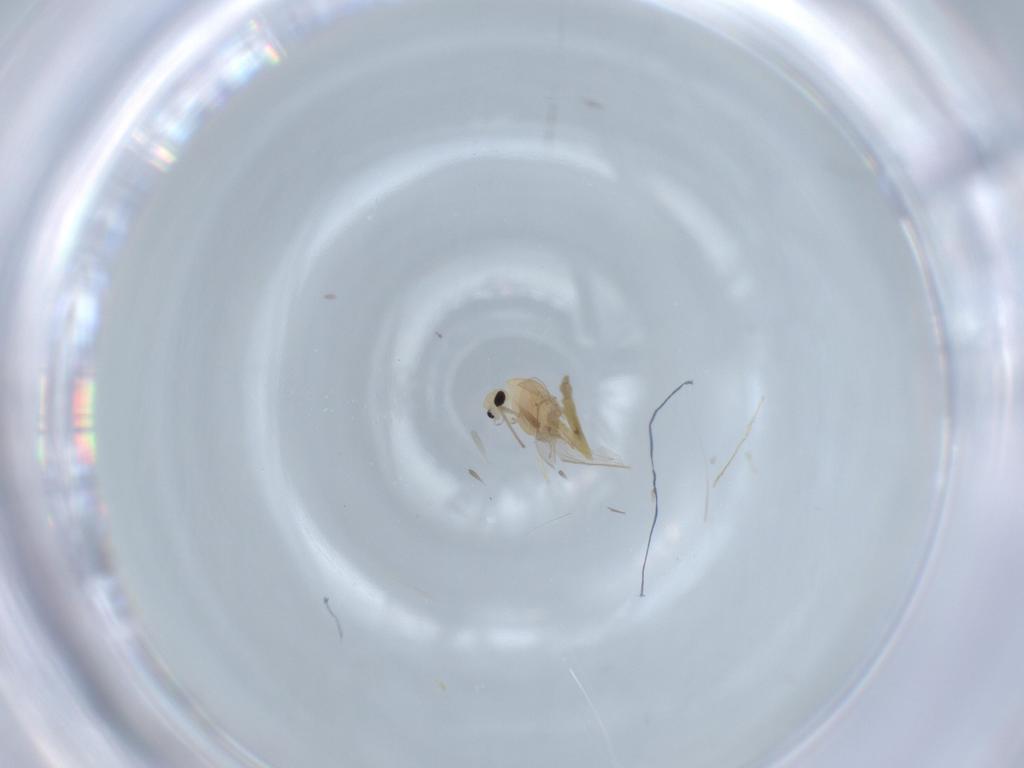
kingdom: Animalia
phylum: Arthropoda
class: Insecta
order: Diptera
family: Cecidomyiidae
